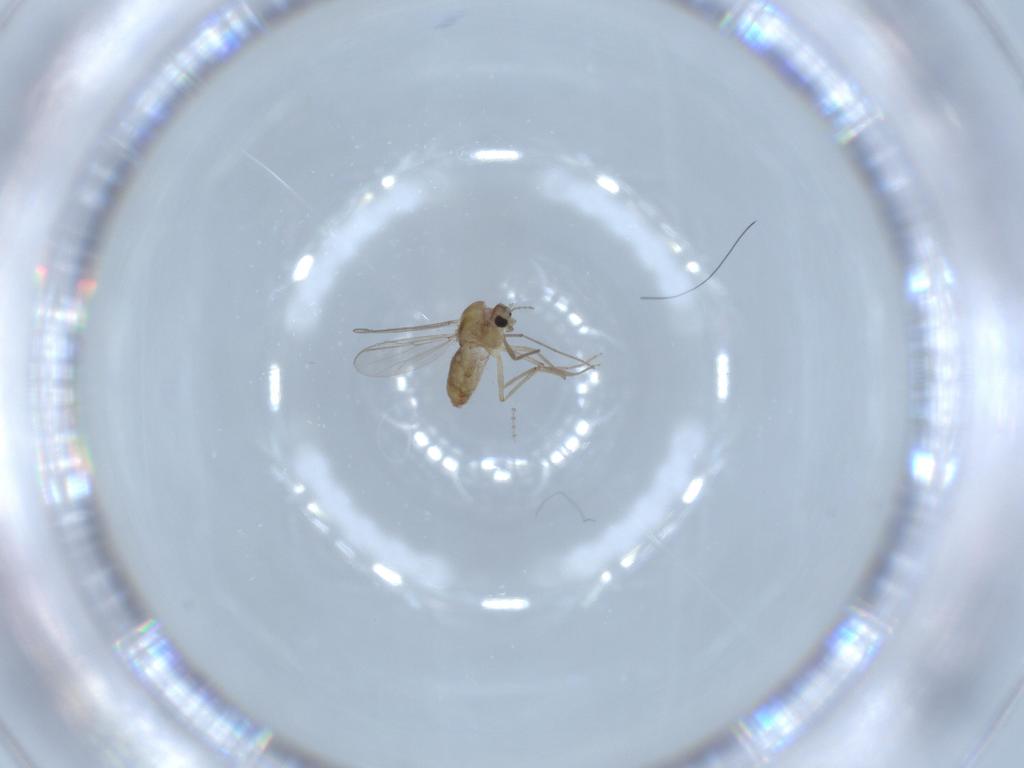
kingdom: Animalia
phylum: Arthropoda
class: Insecta
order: Diptera
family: Chironomidae
